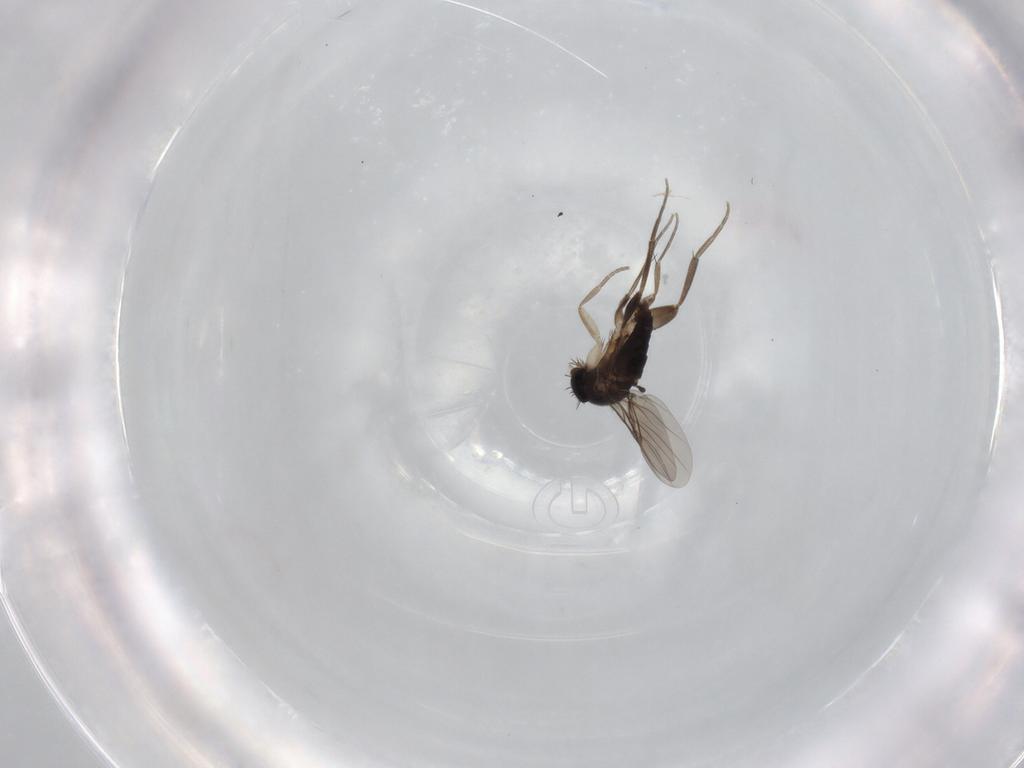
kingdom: Animalia
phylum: Arthropoda
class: Insecta
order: Diptera
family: Phoridae
